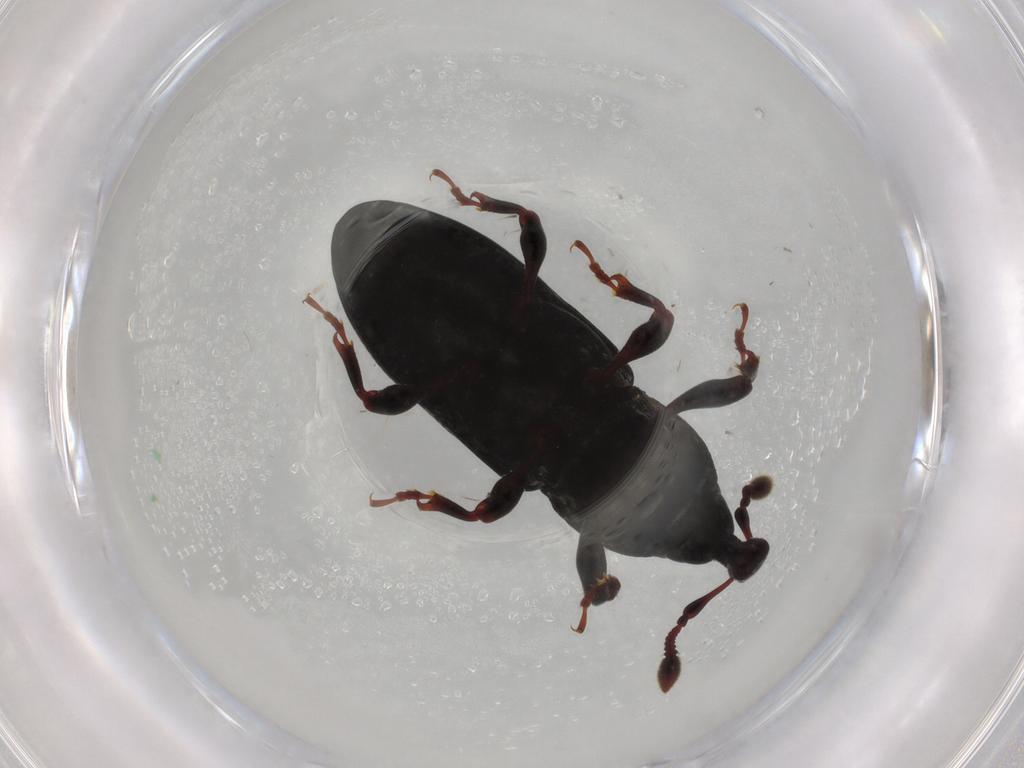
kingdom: Animalia
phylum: Arthropoda
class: Insecta
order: Coleoptera
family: Curculionidae
